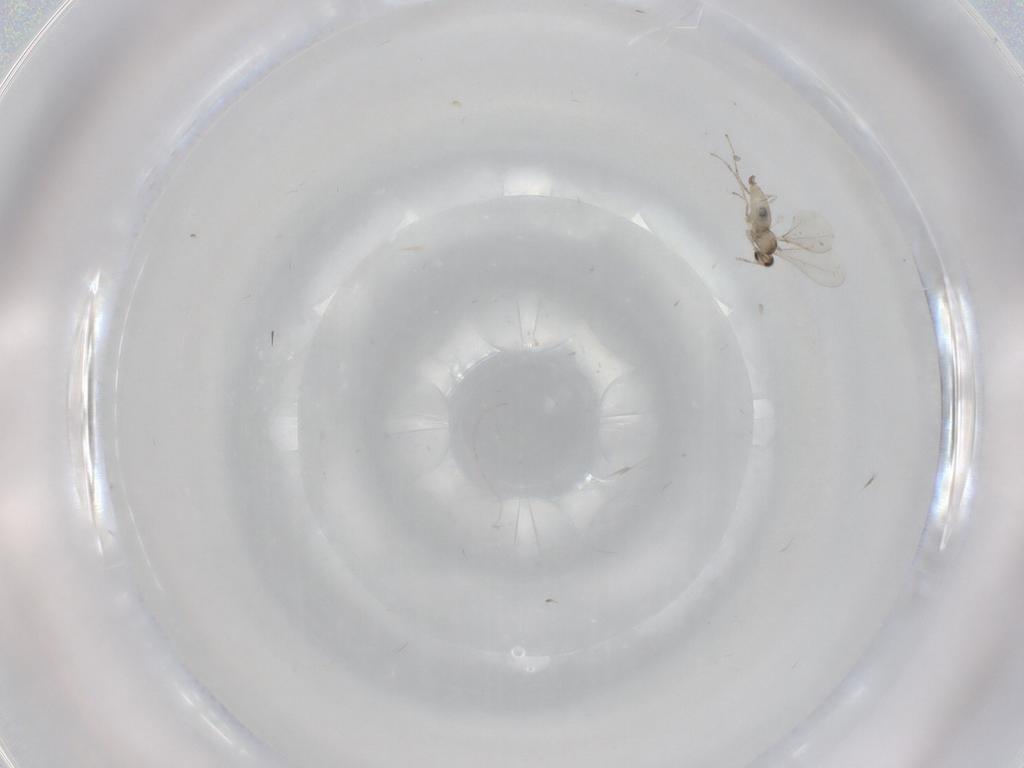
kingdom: Animalia
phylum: Arthropoda
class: Insecta
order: Diptera
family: Cecidomyiidae
